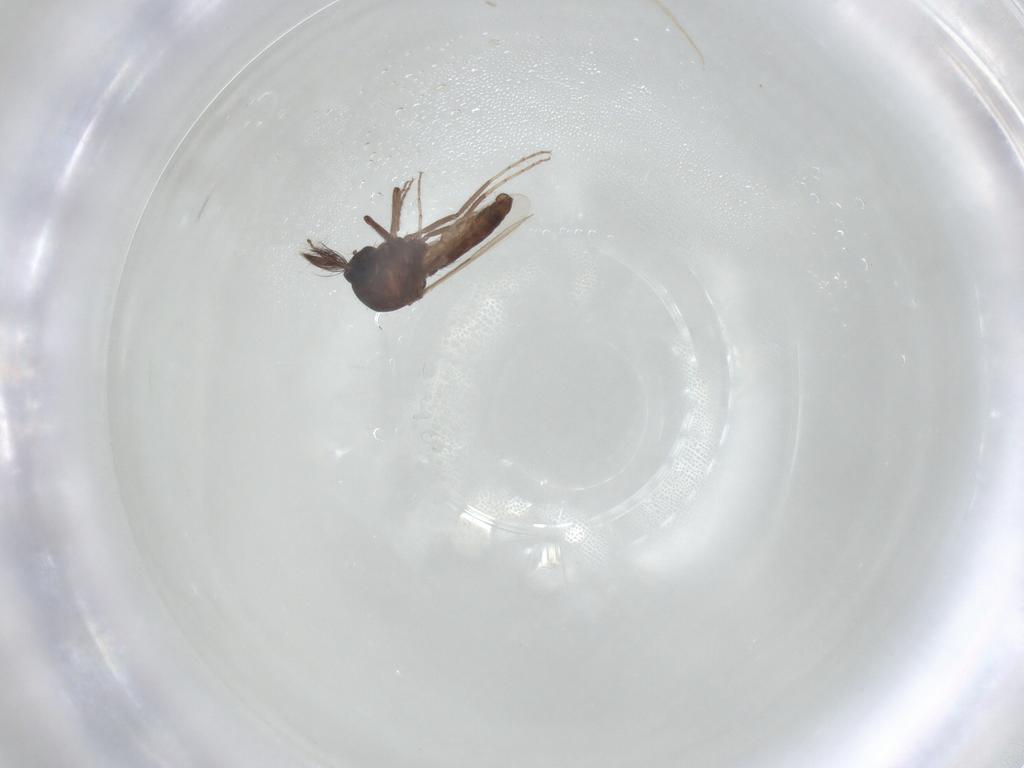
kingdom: Animalia
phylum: Arthropoda
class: Insecta
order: Diptera
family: Ceratopogonidae
